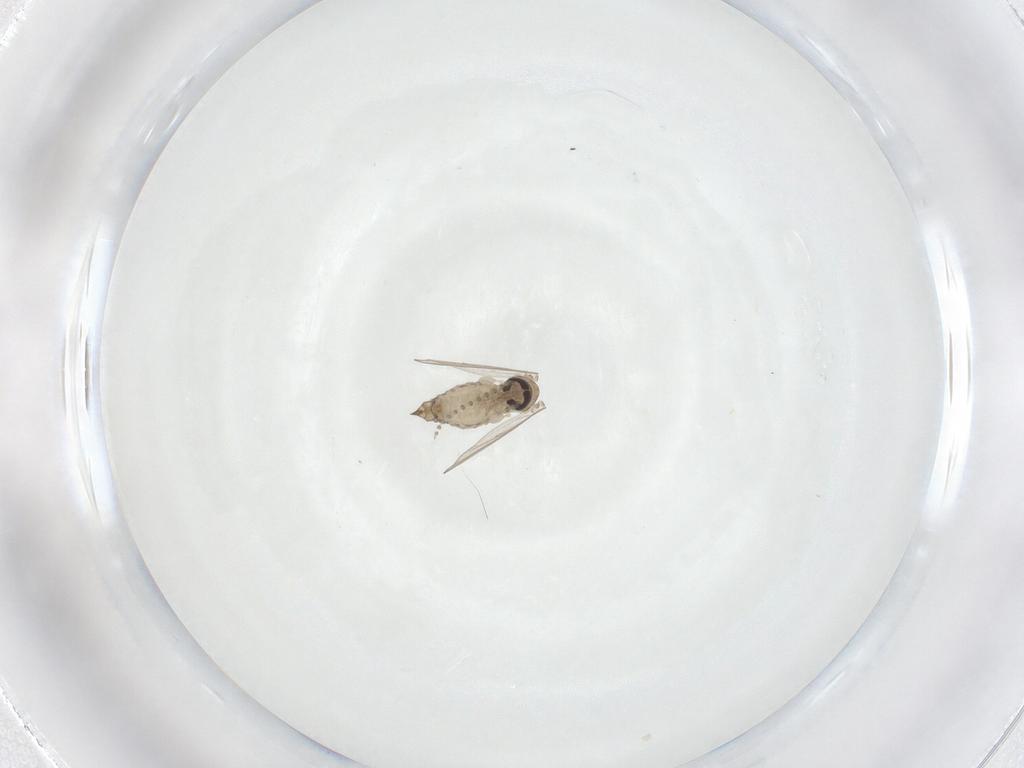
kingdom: Animalia
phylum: Arthropoda
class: Insecta
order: Diptera
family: Psychodidae
